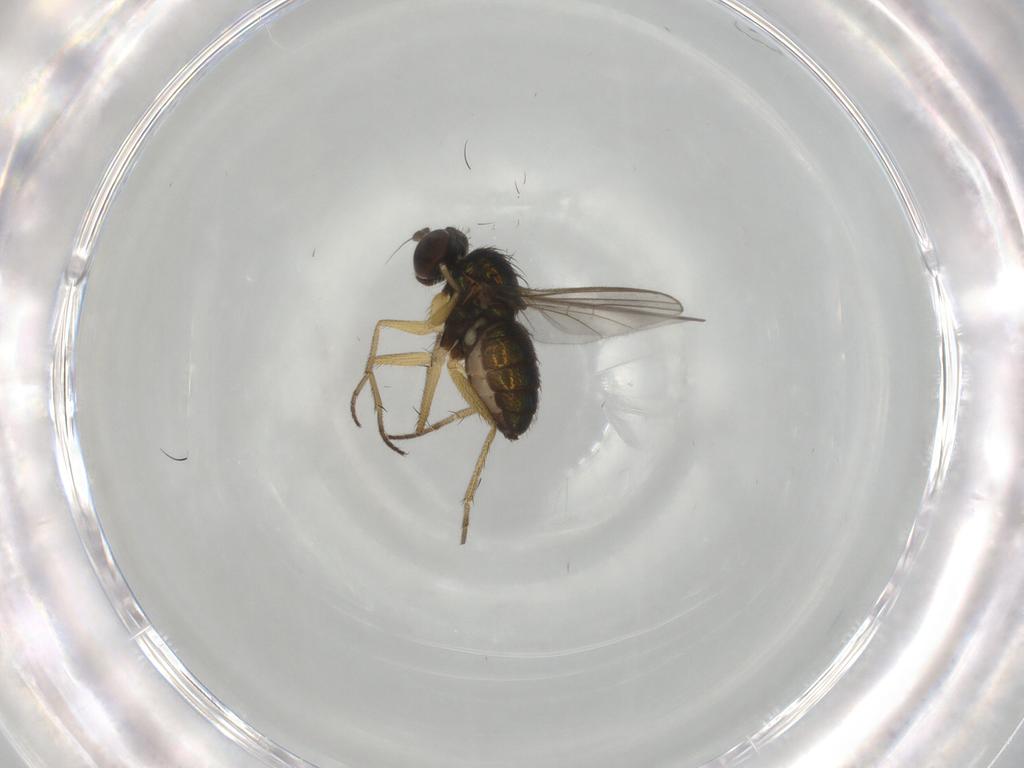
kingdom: Animalia
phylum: Arthropoda
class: Insecta
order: Diptera
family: Dolichopodidae
